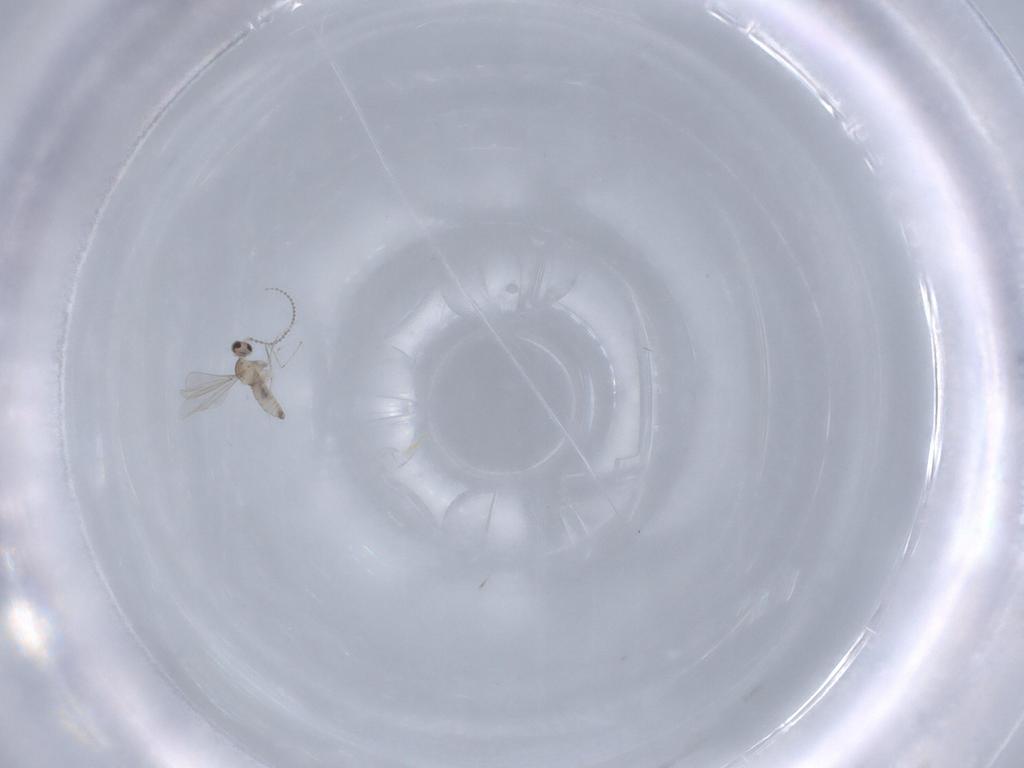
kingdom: Animalia
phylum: Arthropoda
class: Insecta
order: Diptera
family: Cecidomyiidae
